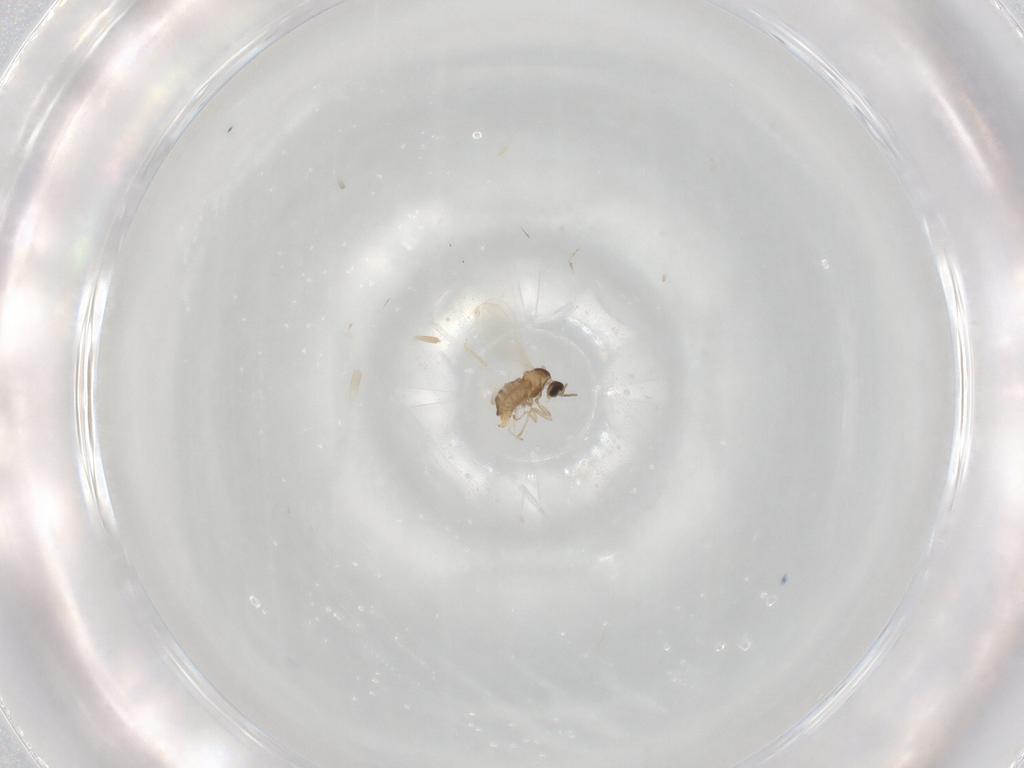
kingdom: Animalia
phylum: Arthropoda
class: Insecta
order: Diptera
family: Cecidomyiidae
